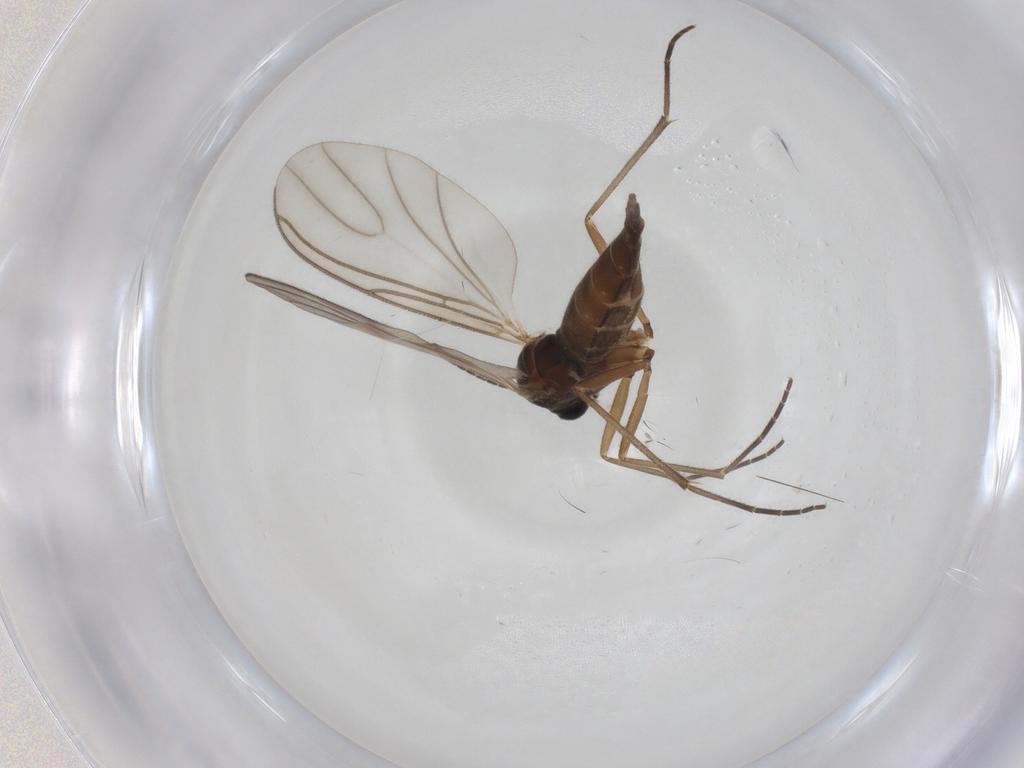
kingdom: Animalia
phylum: Arthropoda
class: Insecta
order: Diptera
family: Sciaridae
